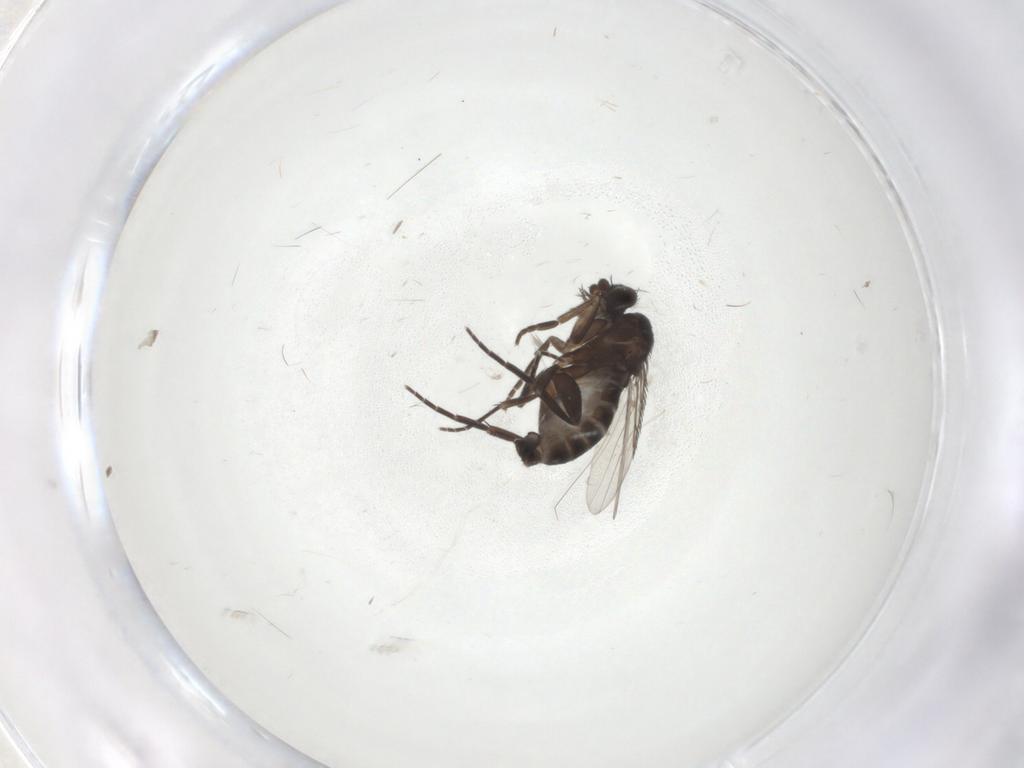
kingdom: Animalia
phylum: Arthropoda
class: Insecta
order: Diptera
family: Phoridae
